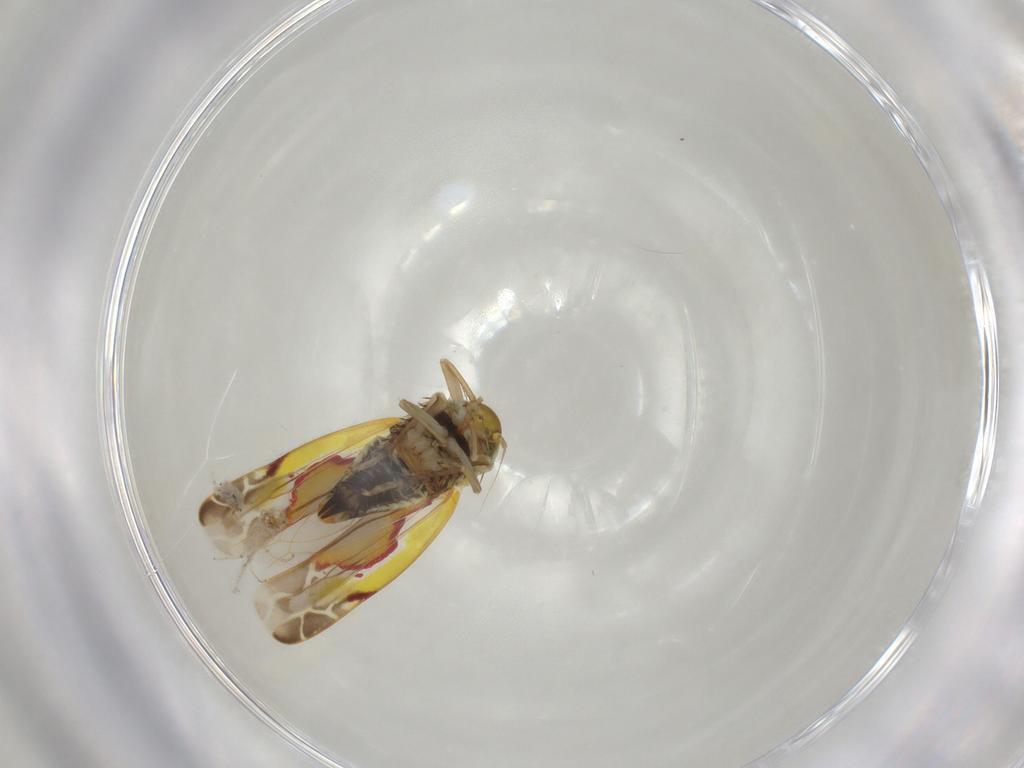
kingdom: Animalia
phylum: Arthropoda
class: Insecta
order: Hemiptera
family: Cicadellidae
